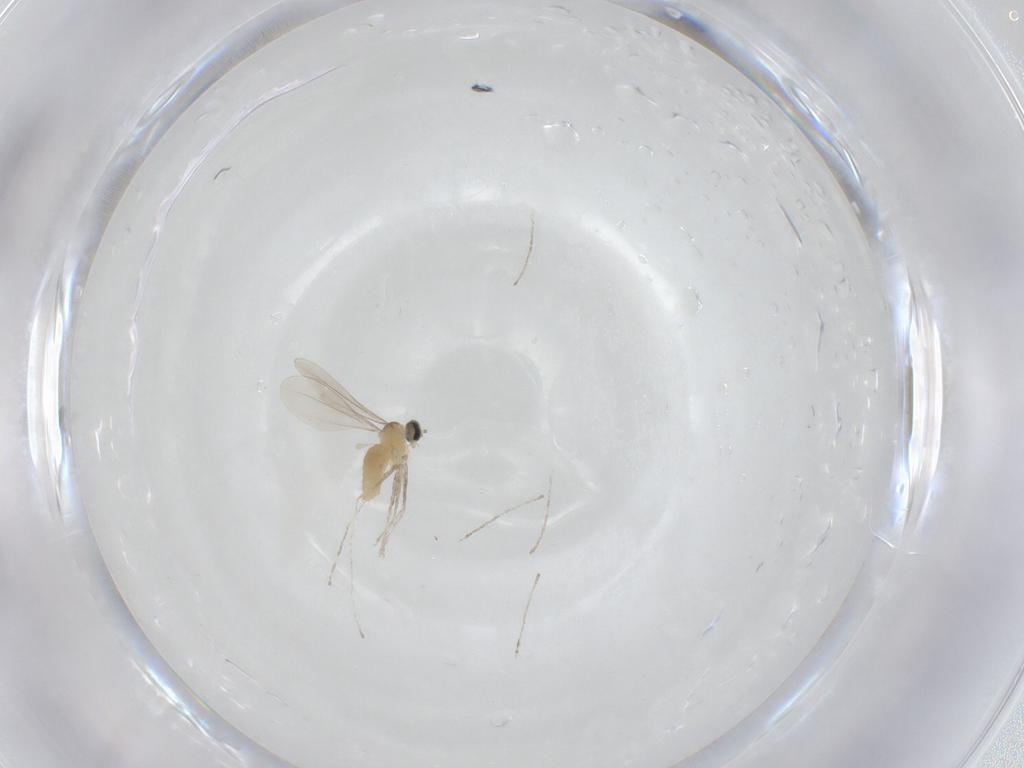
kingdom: Animalia
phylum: Arthropoda
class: Insecta
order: Diptera
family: Cecidomyiidae
